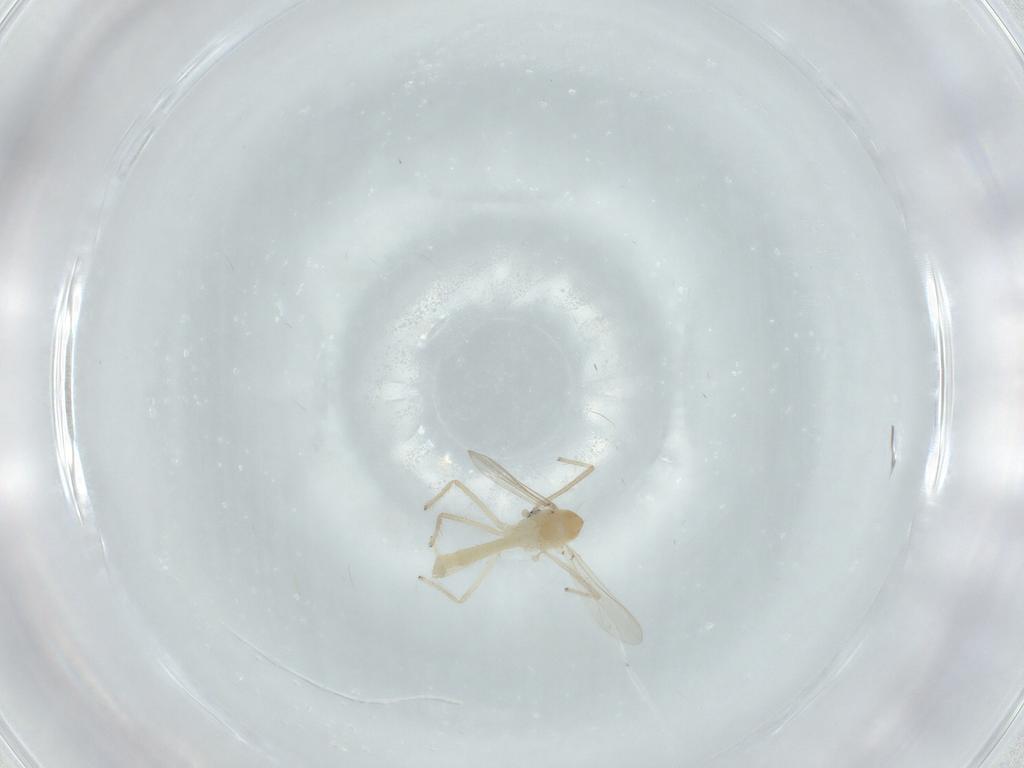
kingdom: Animalia
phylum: Arthropoda
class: Insecta
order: Diptera
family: Chironomidae
